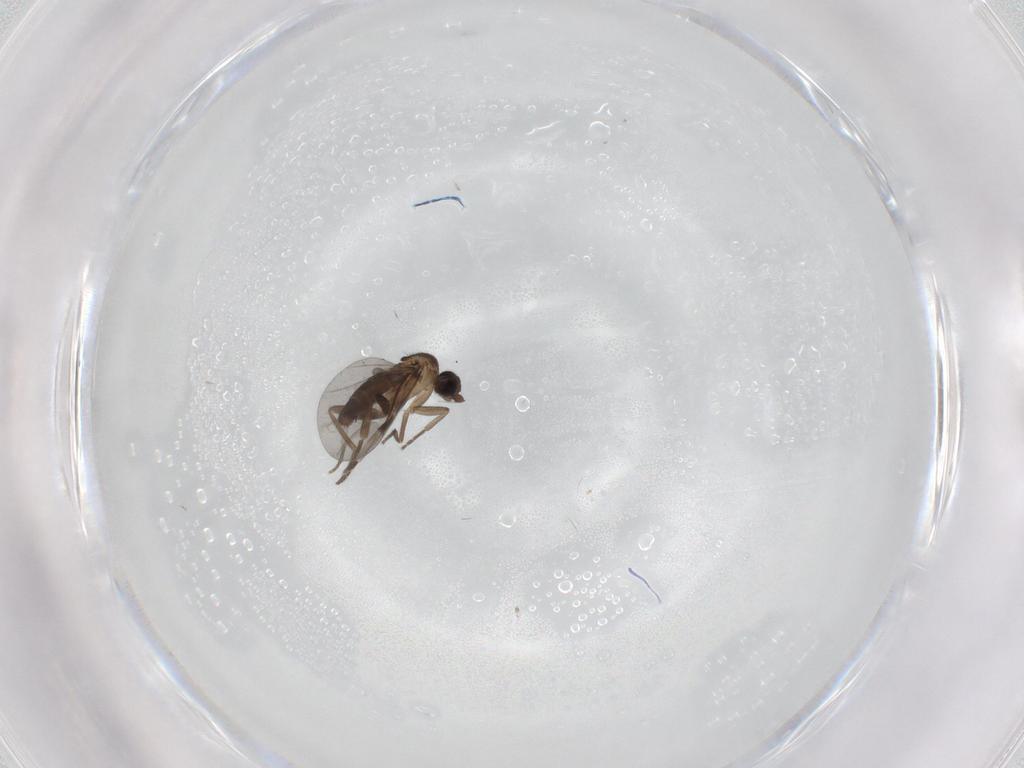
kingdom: Animalia
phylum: Arthropoda
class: Insecta
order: Diptera
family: Phoridae
